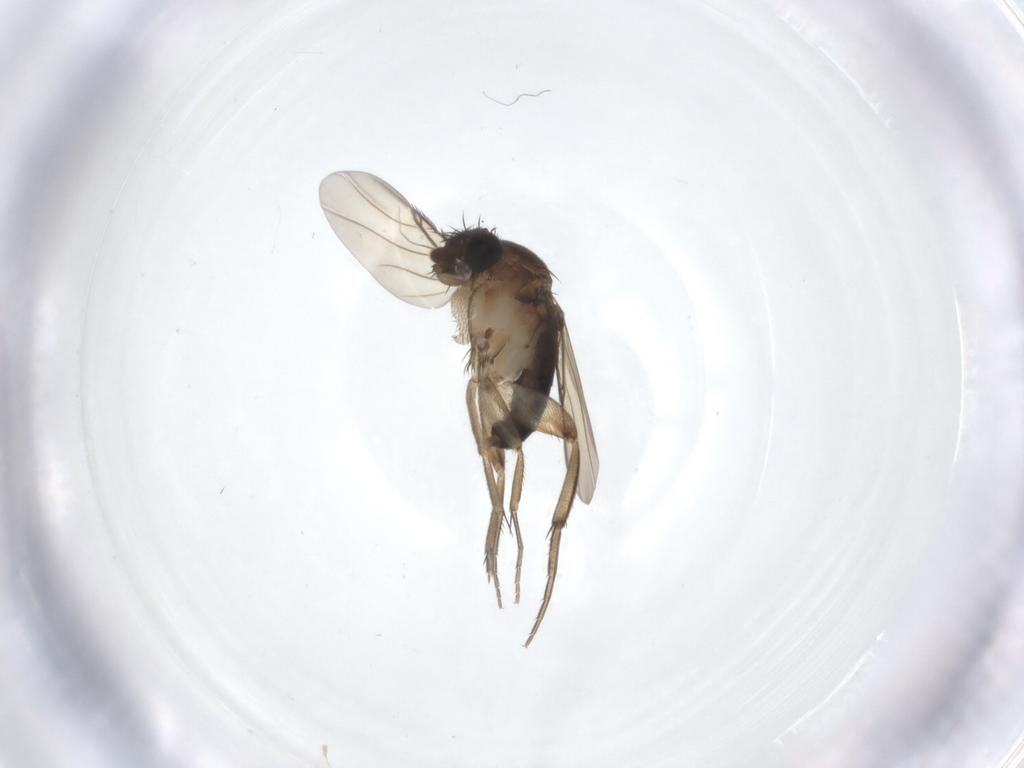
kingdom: Animalia
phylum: Arthropoda
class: Insecta
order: Diptera
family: Phoridae
